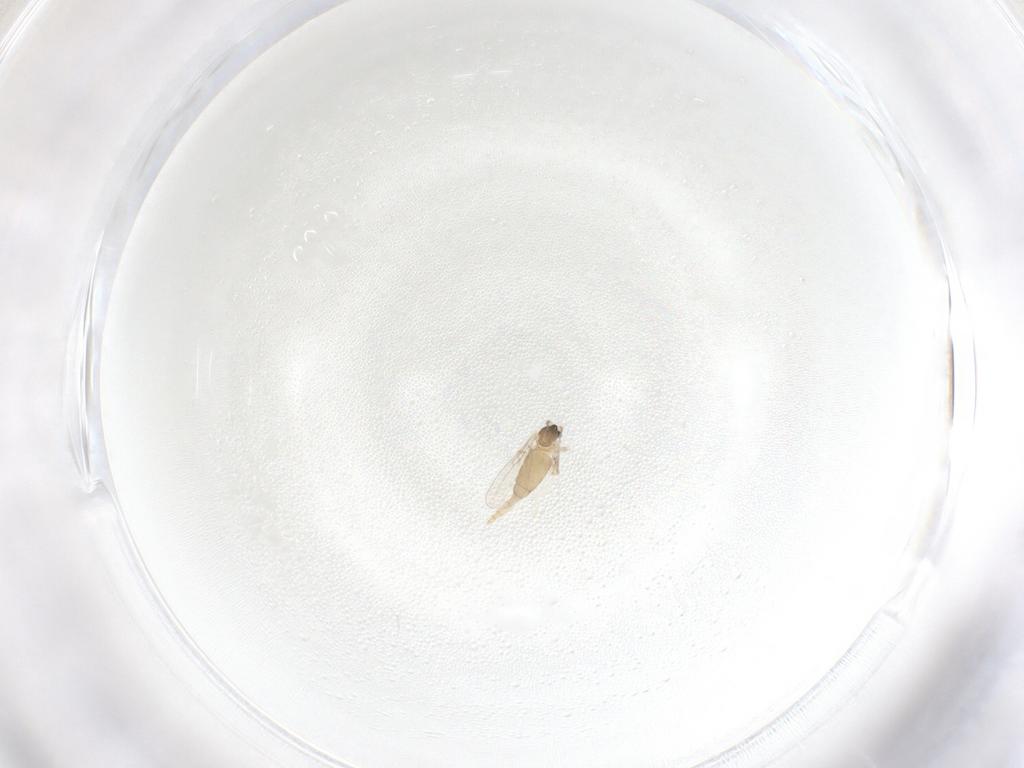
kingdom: Animalia
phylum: Arthropoda
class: Insecta
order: Diptera
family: Cecidomyiidae
